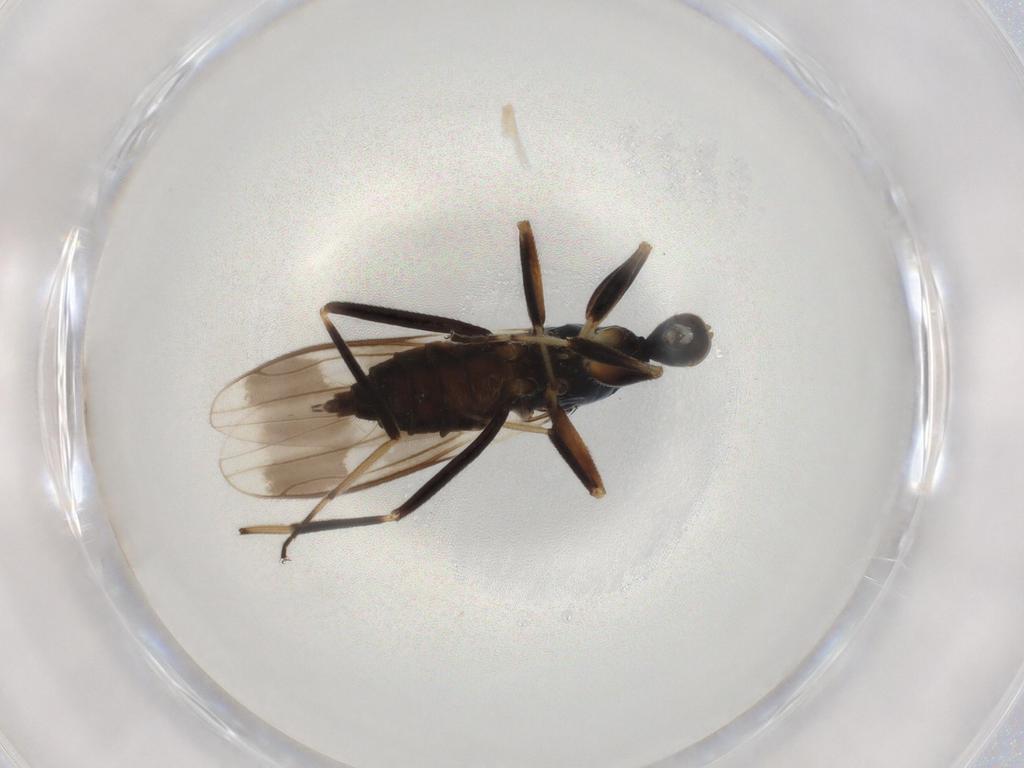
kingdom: Animalia
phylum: Arthropoda
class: Insecta
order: Diptera
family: Hybotidae
